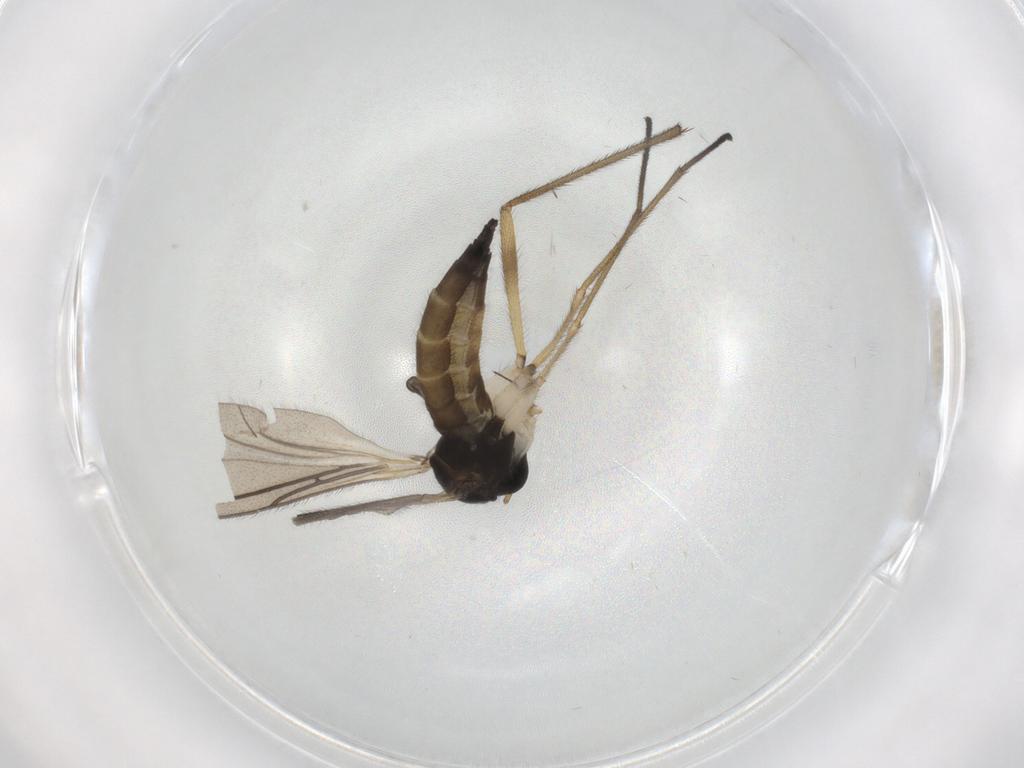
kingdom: Animalia
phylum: Arthropoda
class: Insecta
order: Diptera
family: Sciaridae
